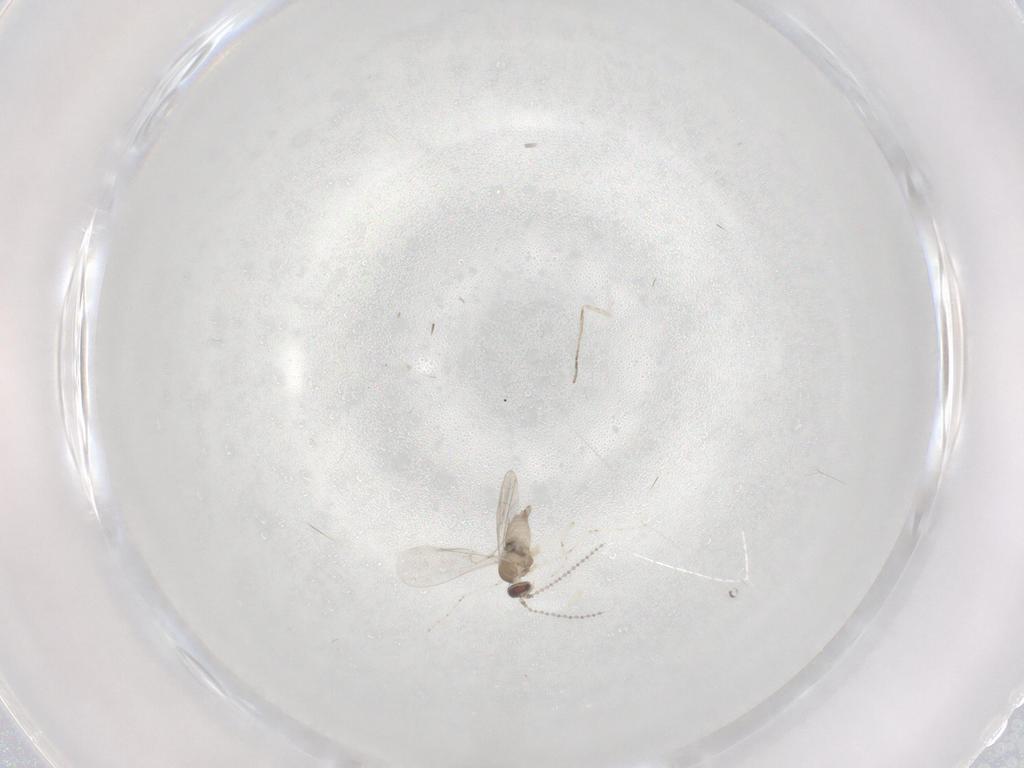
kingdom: Animalia
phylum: Arthropoda
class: Insecta
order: Diptera
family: Cecidomyiidae
